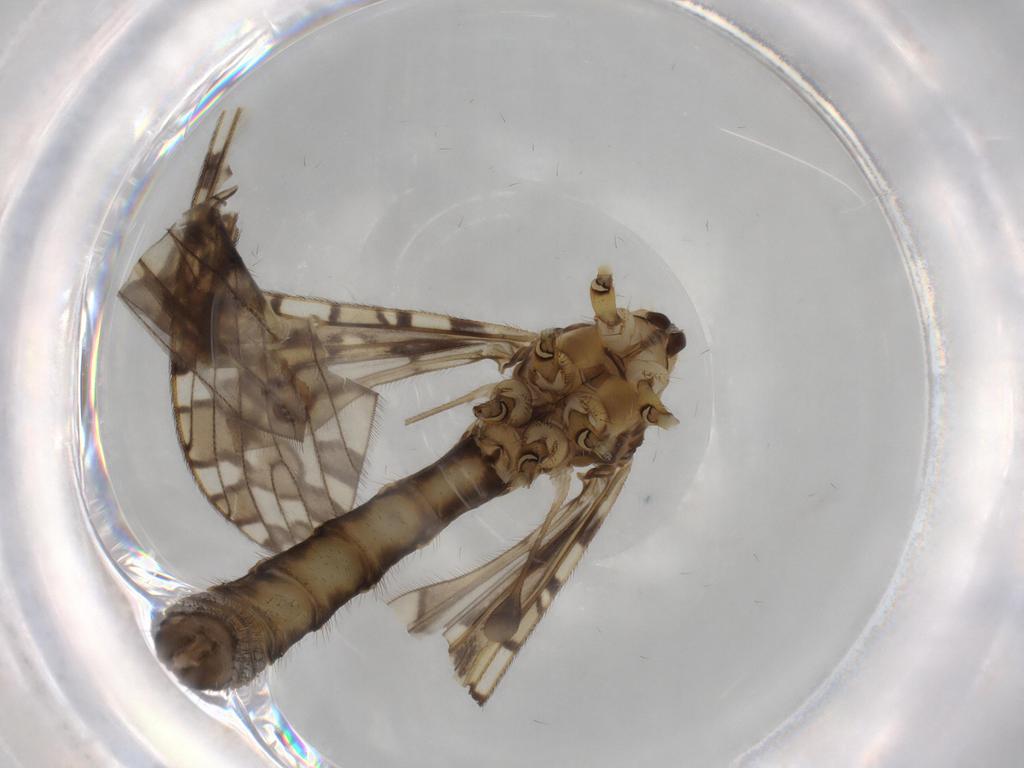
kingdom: Animalia
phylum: Arthropoda
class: Insecta
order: Diptera
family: Limoniidae
